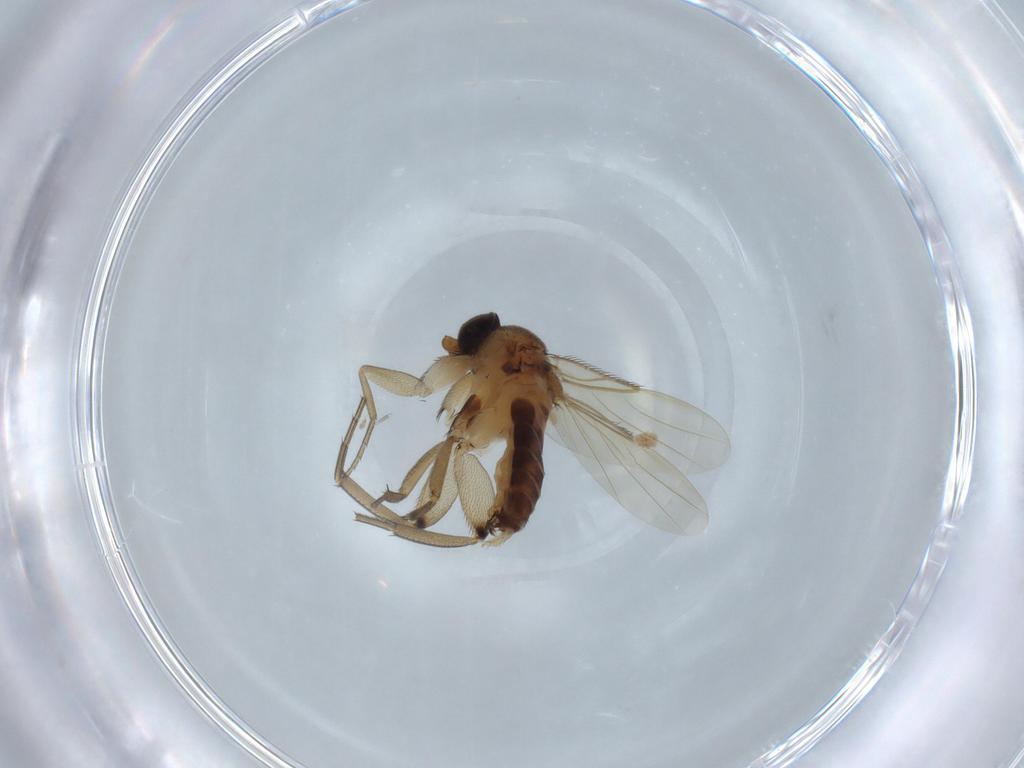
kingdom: Animalia
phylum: Arthropoda
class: Insecta
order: Diptera
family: Phoridae
